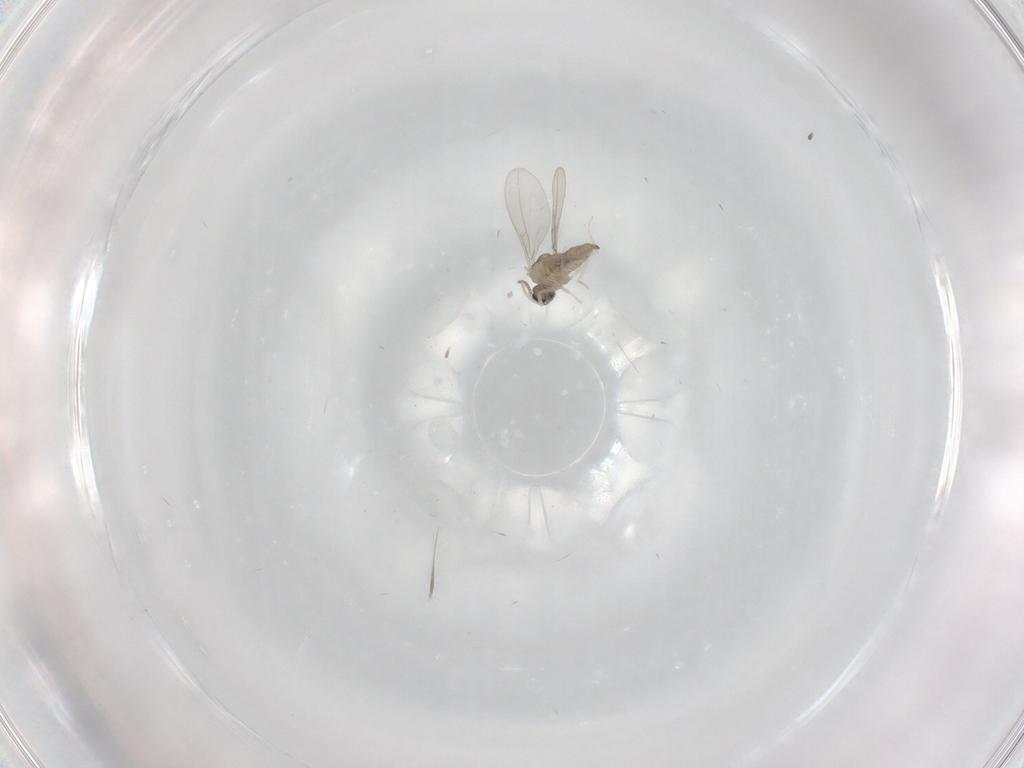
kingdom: Animalia
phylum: Arthropoda
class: Insecta
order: Diptera
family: Cecidomyiidae
